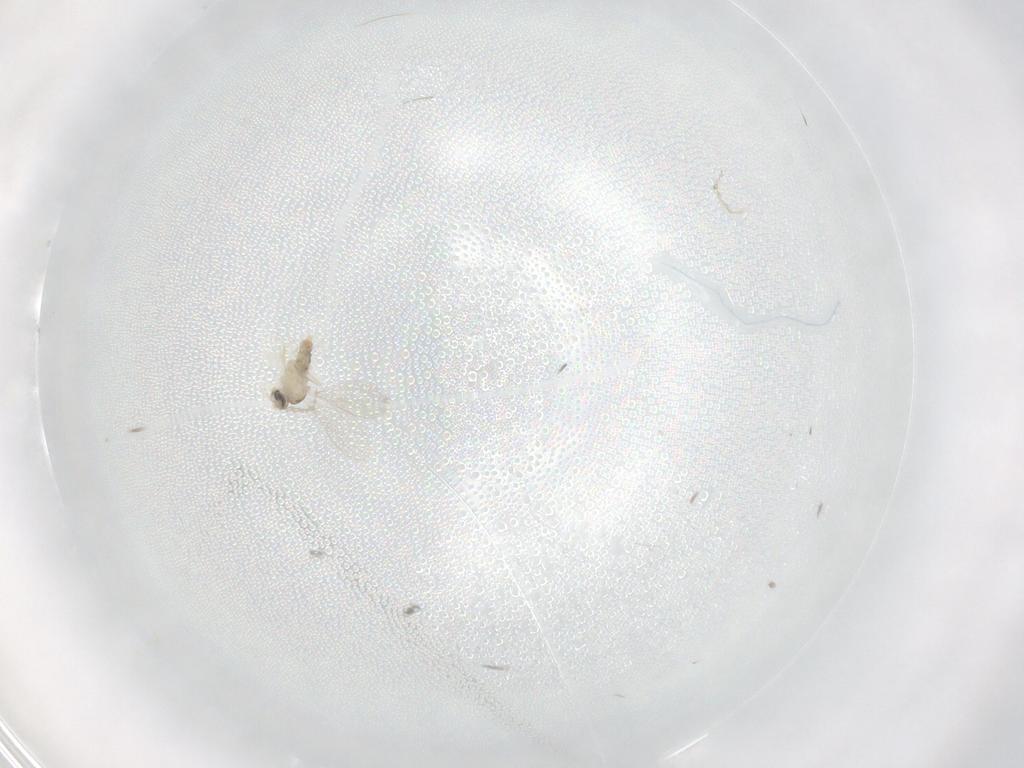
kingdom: Animalia
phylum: Arthropoda
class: Insecta
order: Diptera
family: Cecidomyiidae
